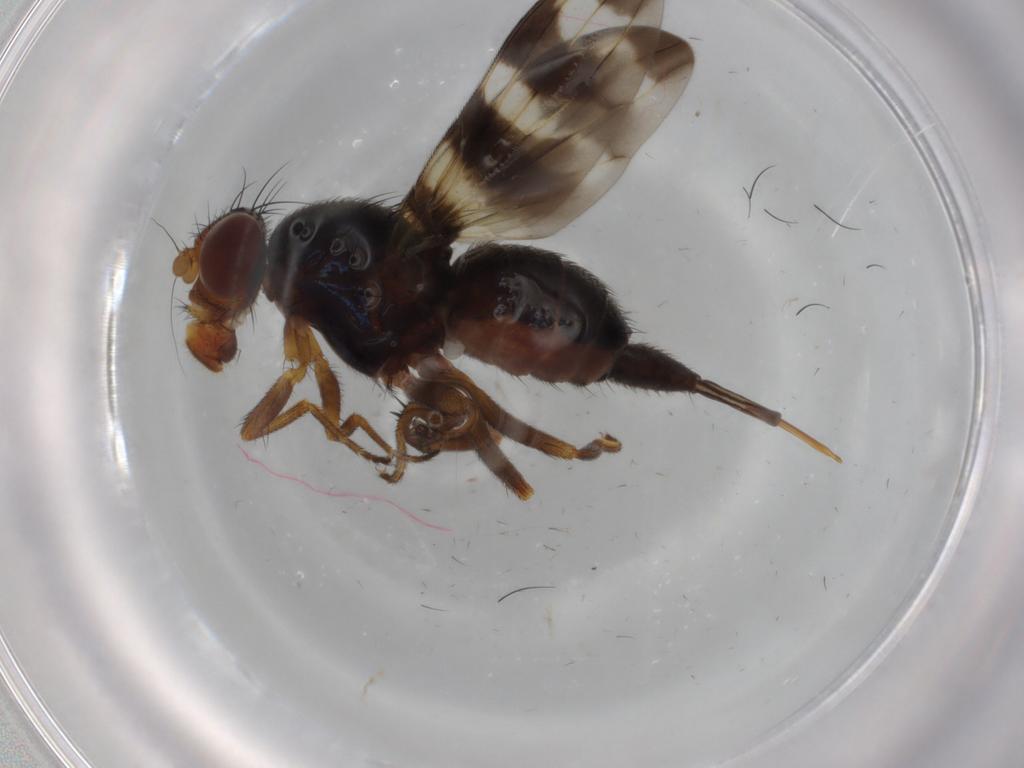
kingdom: Animalia
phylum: Arthropoda
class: Insecta
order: Diptera
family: Ulidiidae
